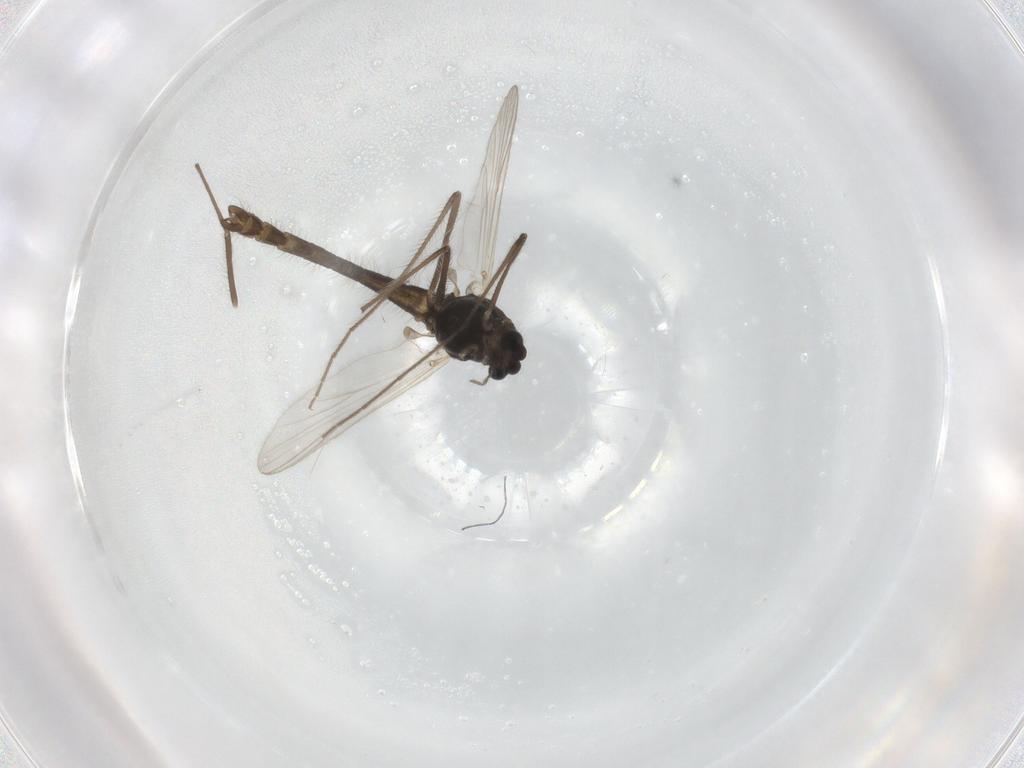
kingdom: Animalia
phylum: Arthropoda
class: Insecta
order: Diptera
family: Chironomidae
